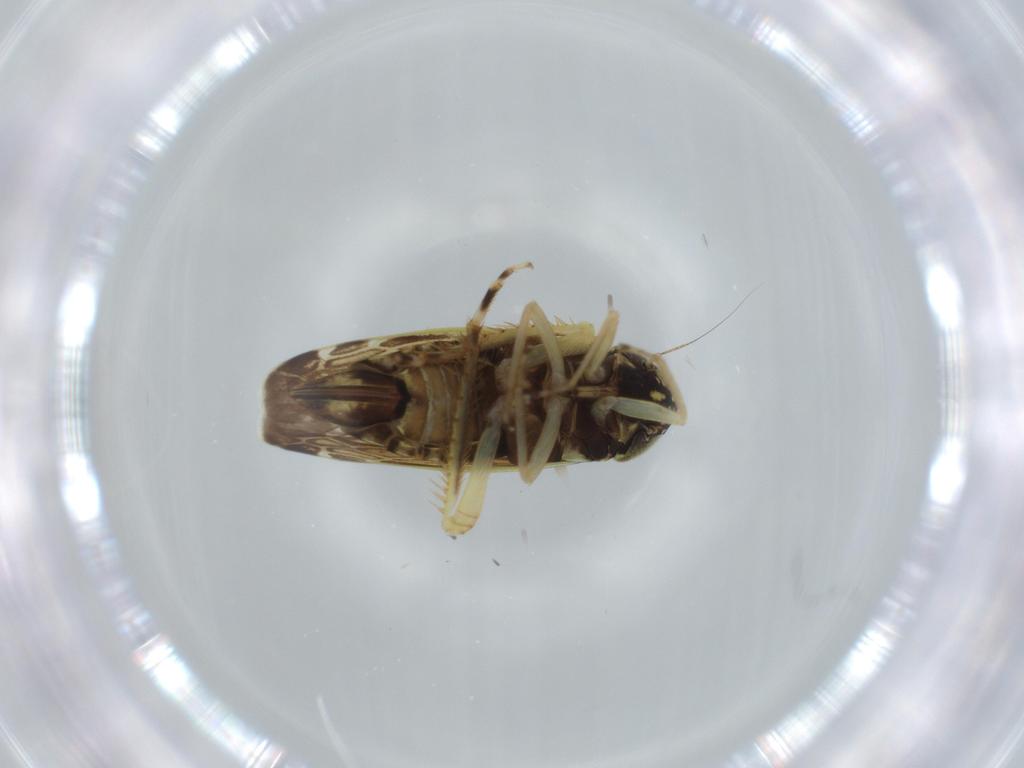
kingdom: Animalia
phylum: Arthropoda
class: Insecta
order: Hemiptera
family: Cicadellidae
